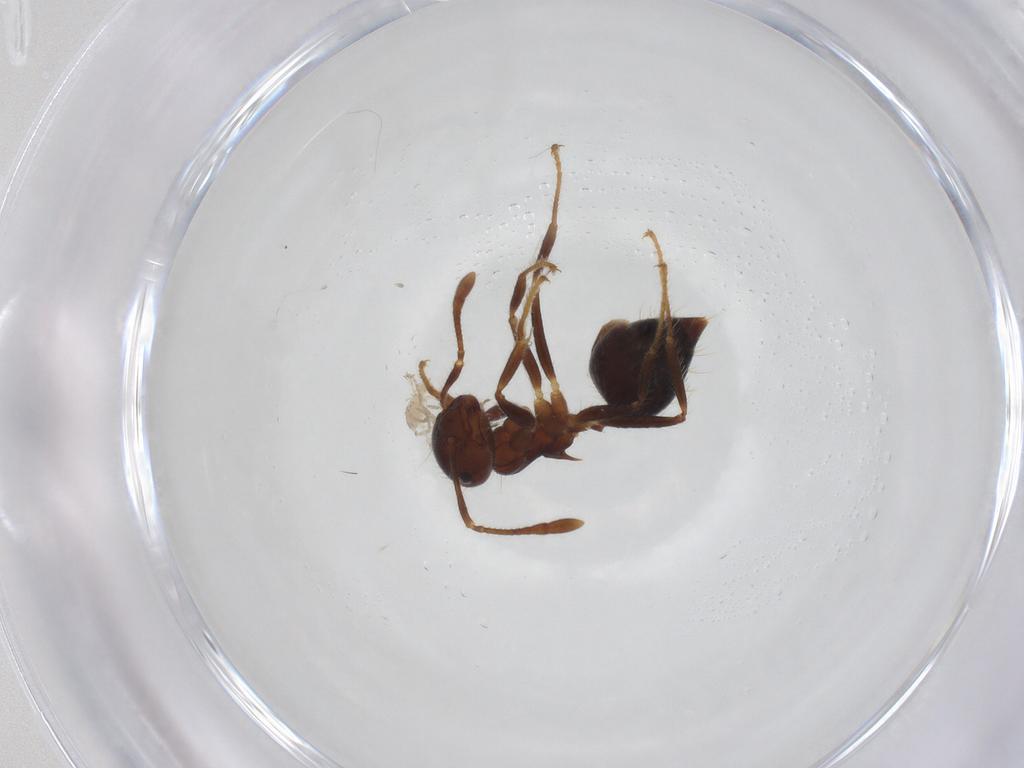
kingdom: Animalia
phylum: Arthropoda
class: Insecta
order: Hymenoptera
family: Formicidae
